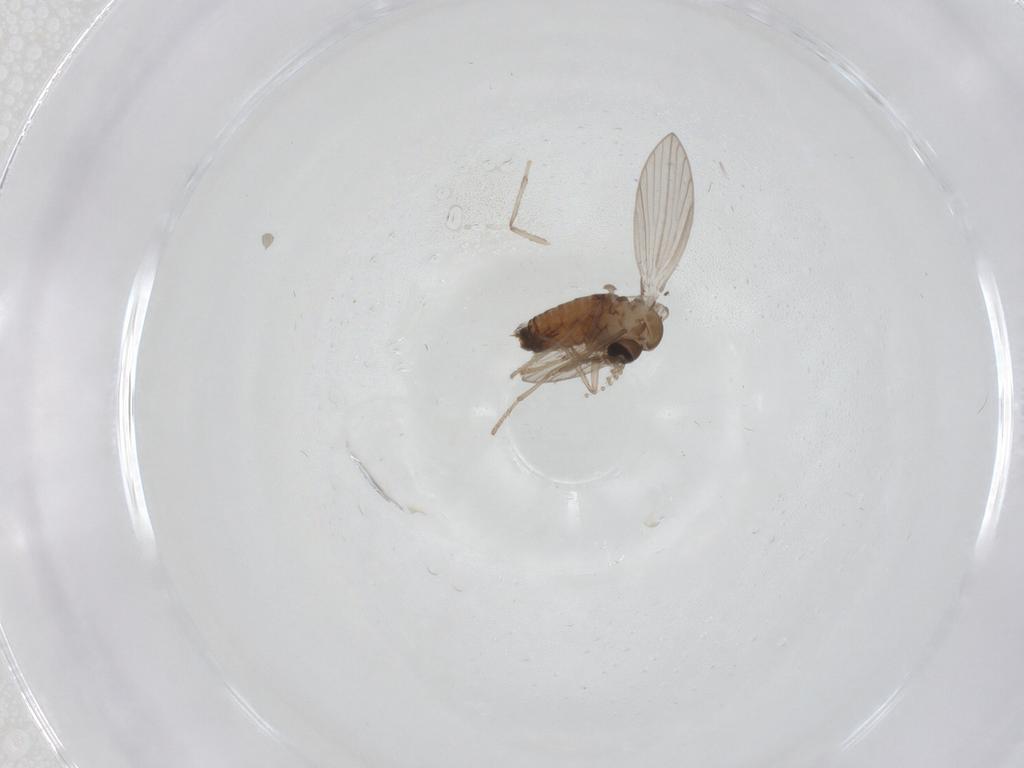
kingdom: Animalia
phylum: Arthropoda
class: Insecta
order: Diptera
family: Psychodidae
